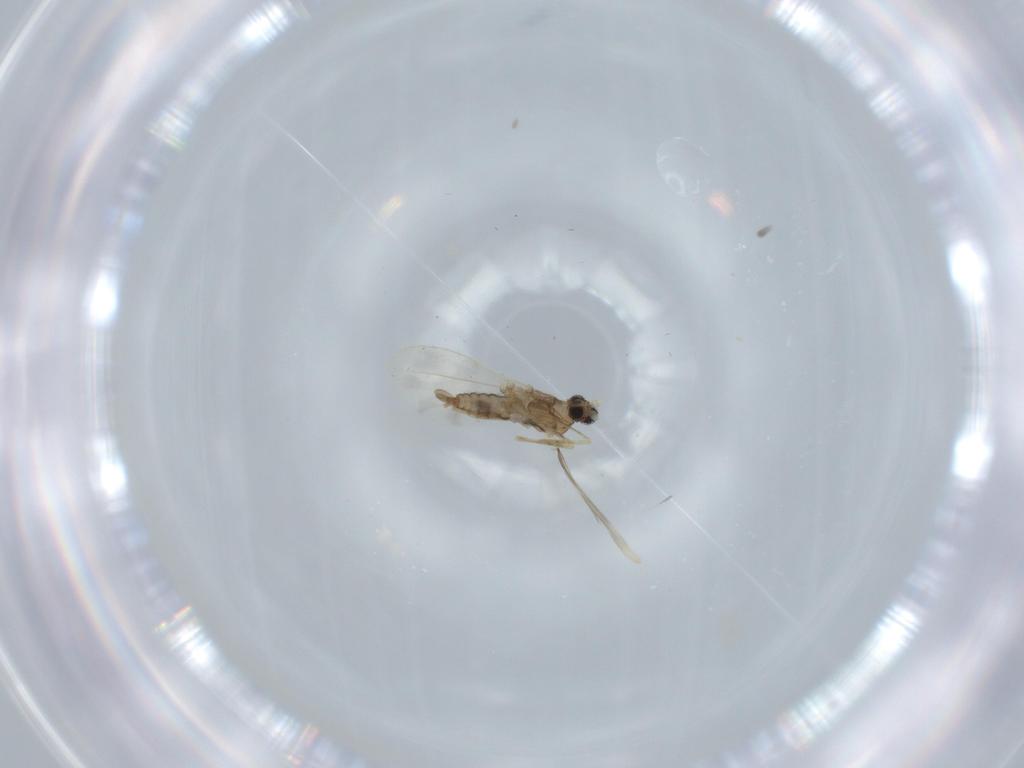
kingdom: Animalia
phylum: Arthropoda
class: Insecta
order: Diptera
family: Cecidomyiidae
